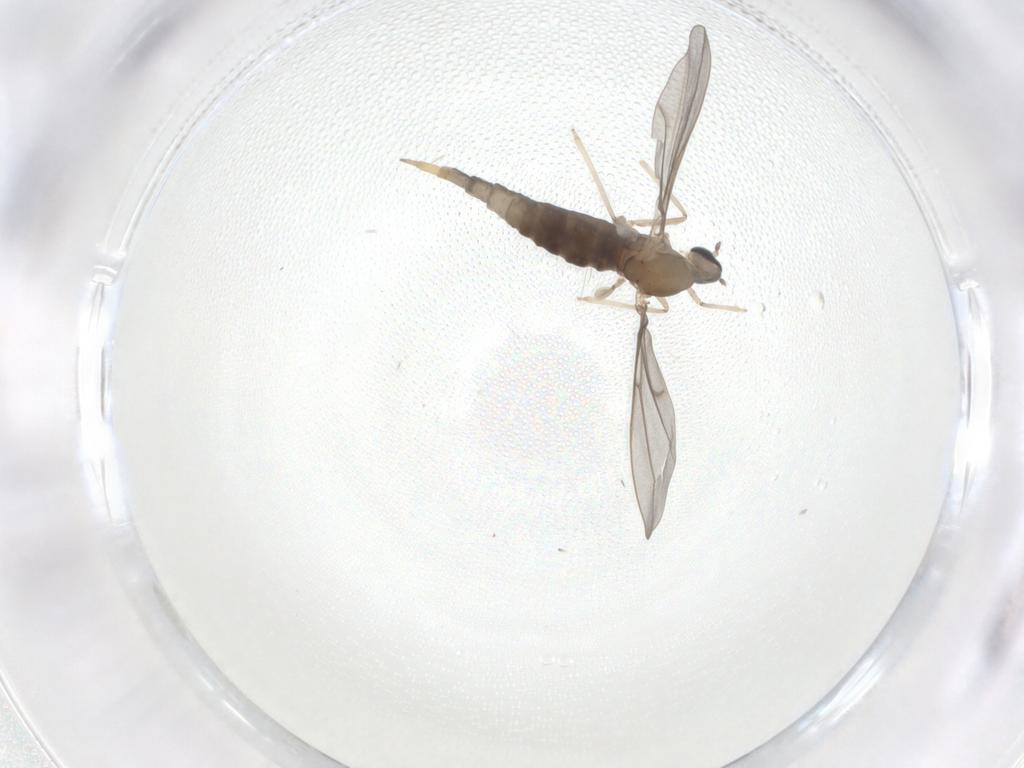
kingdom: Animalia
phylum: Arthropoda
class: Insecta
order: Diptera
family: Cecidomyiidae
